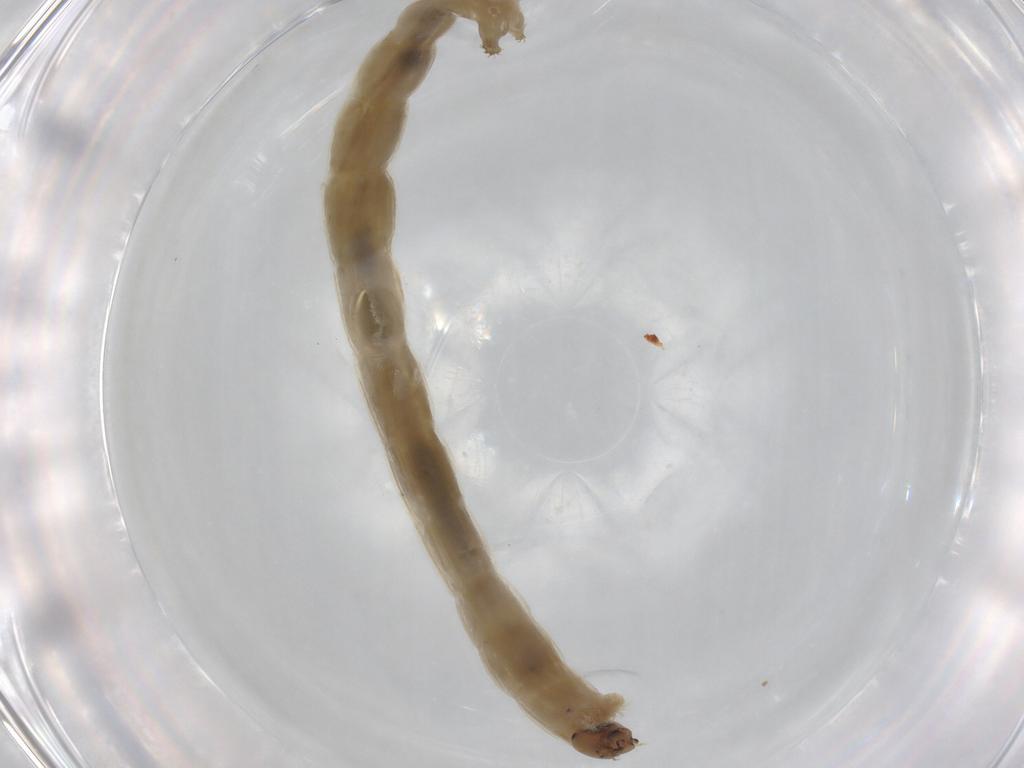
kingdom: Animalia
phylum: Arthropoda
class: Insecta
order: Diptera
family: Chironomidae
